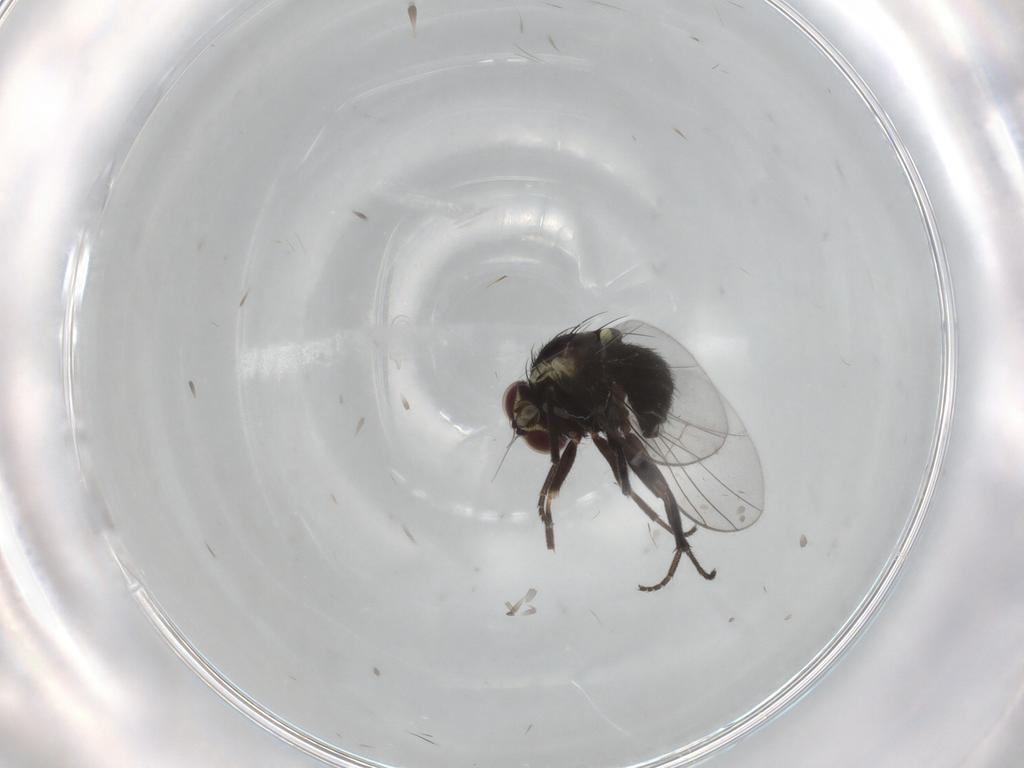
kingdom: Animalia
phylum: Arthropoda
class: Insecta
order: Diptera
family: Agromyzidae
